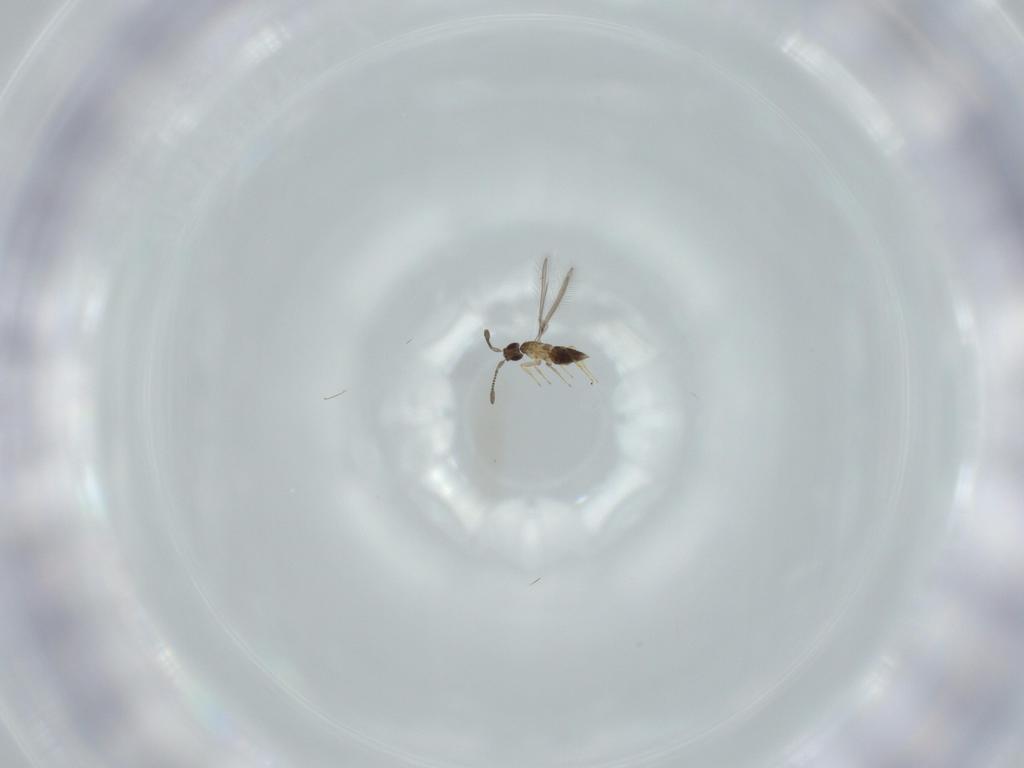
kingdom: Animalia
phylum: Arthropoda
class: Insecta
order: Hymenoptera
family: Mymaridae
